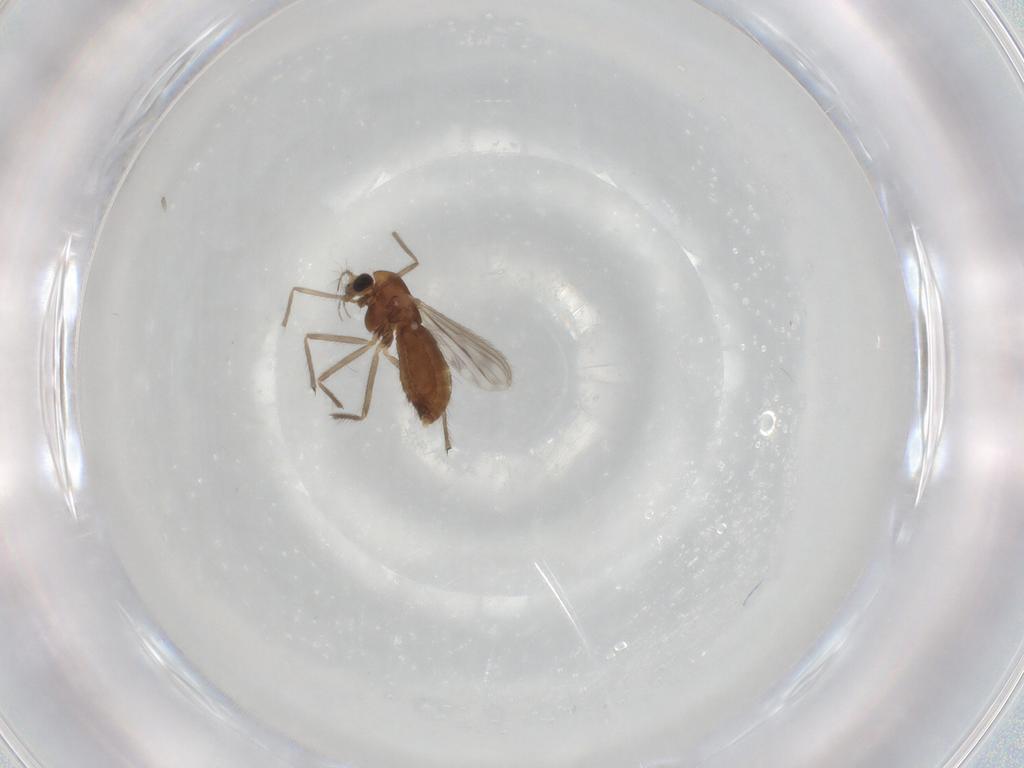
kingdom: Animalia
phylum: Arthropoda
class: Insecta
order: Diptera
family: Chironomidae
